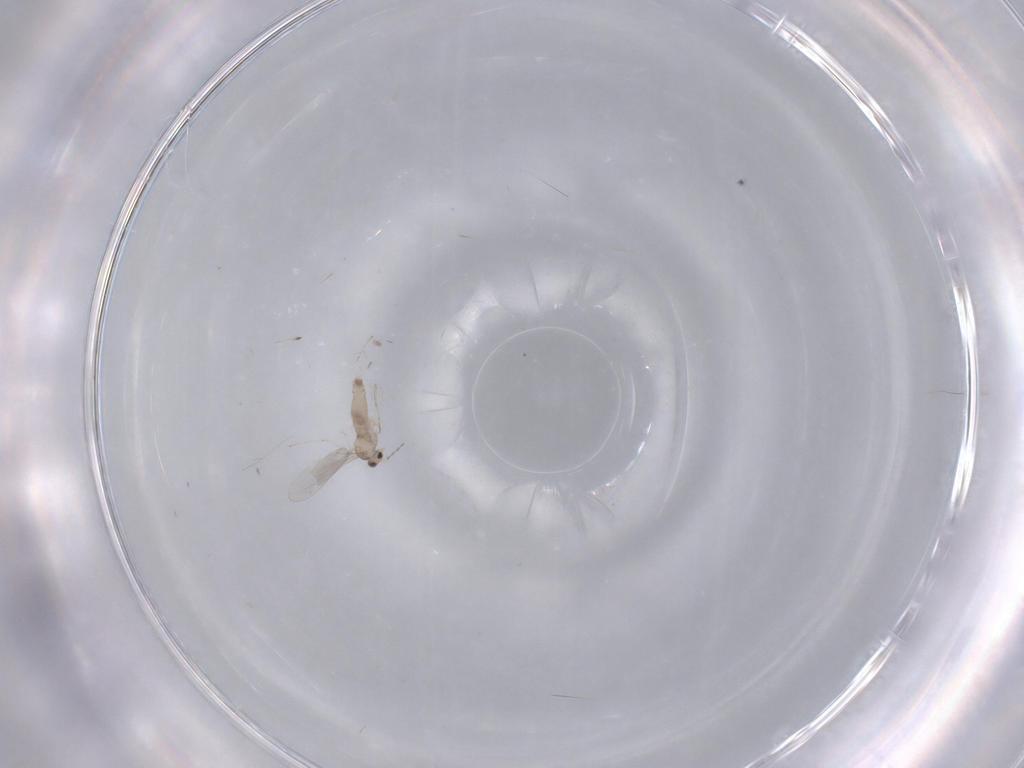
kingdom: Animalia
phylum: Arthropoda
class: Insecta
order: Diptera
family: Cecidomyiidae
